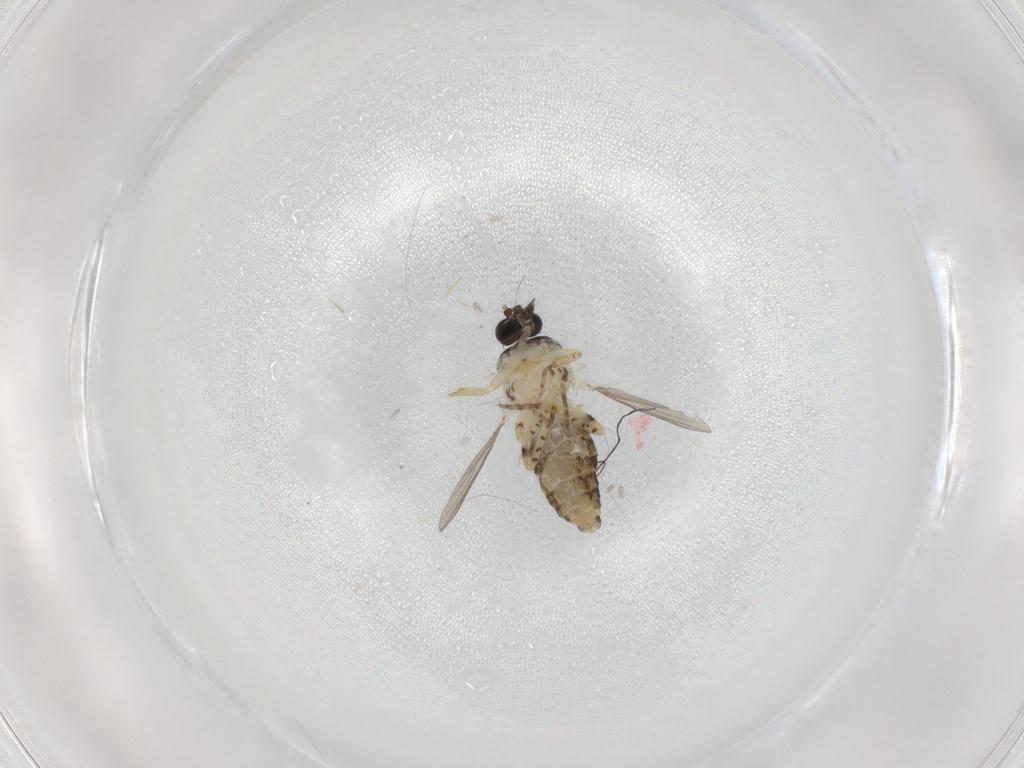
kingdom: Animalia
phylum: Arthropoda
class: Insecta
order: Diptera
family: Ceratopogonidae
